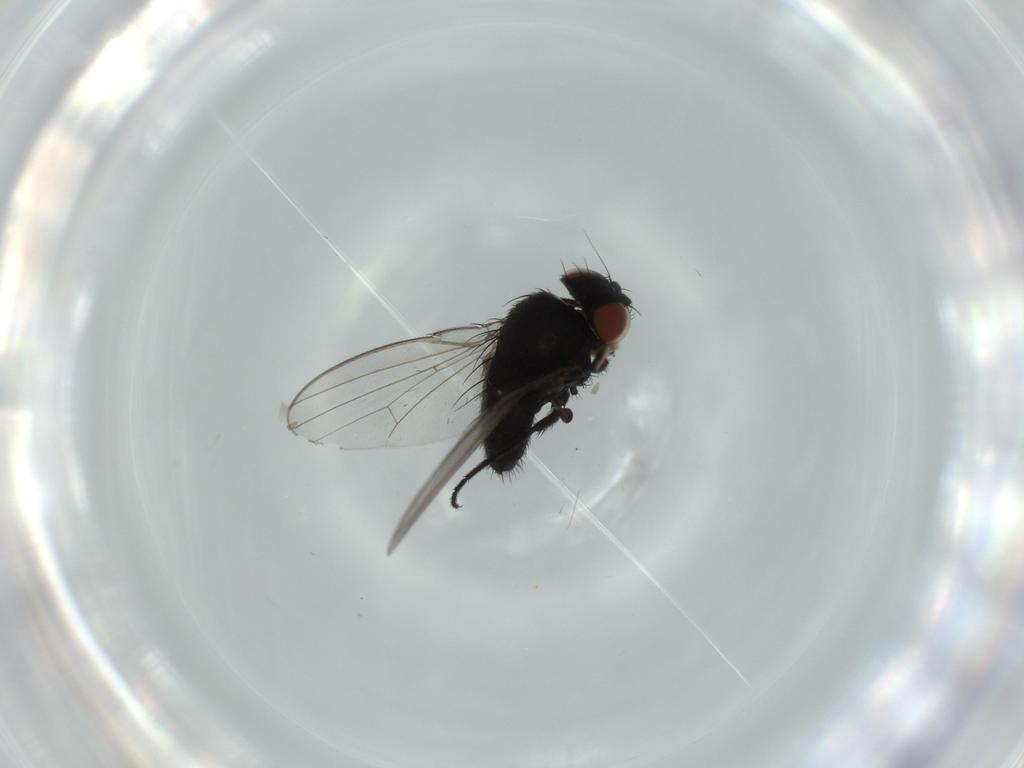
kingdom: Animalia
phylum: Arthropoda
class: Insecta
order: Diptera
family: Milichiidae
